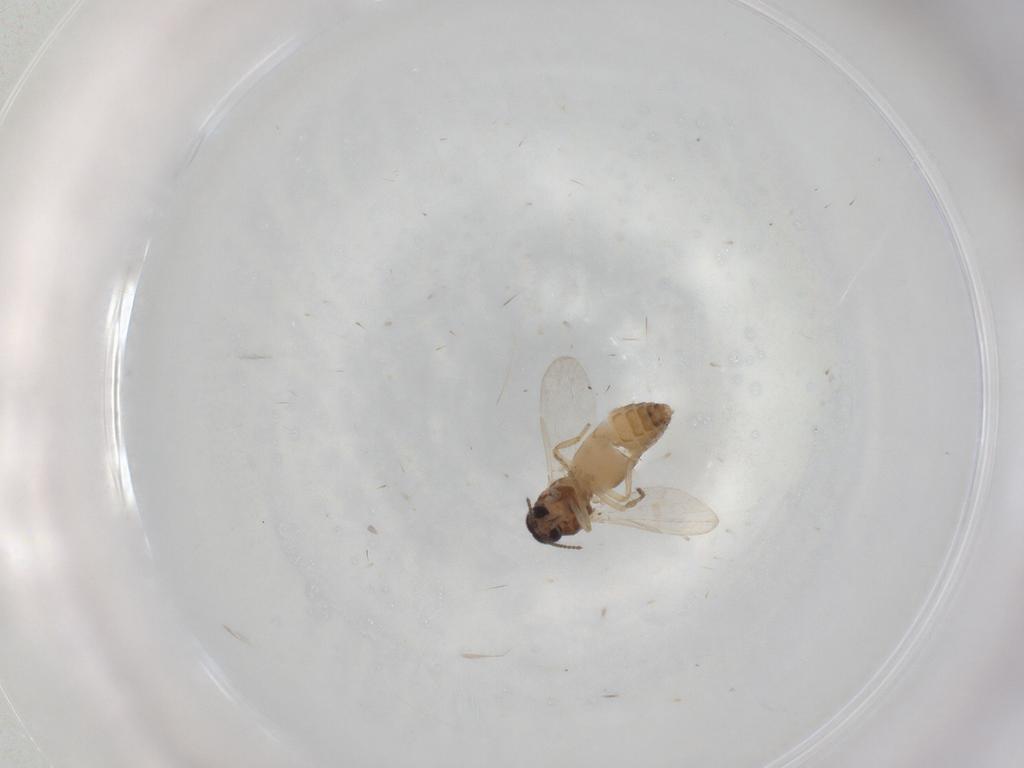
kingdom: Animalia
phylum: Arthropoda
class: Insecta
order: Diptera
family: Ceratopogonidae
